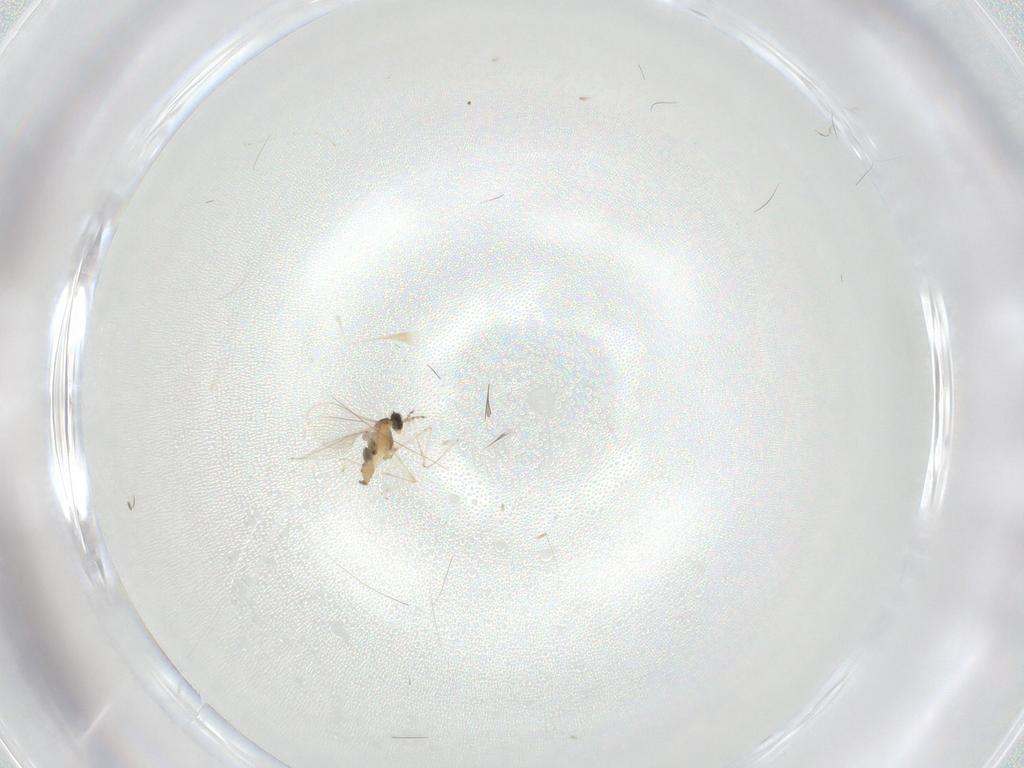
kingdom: Animalia
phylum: Arthropoda
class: Insecta
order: Diptera
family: Cecidomyiidae
